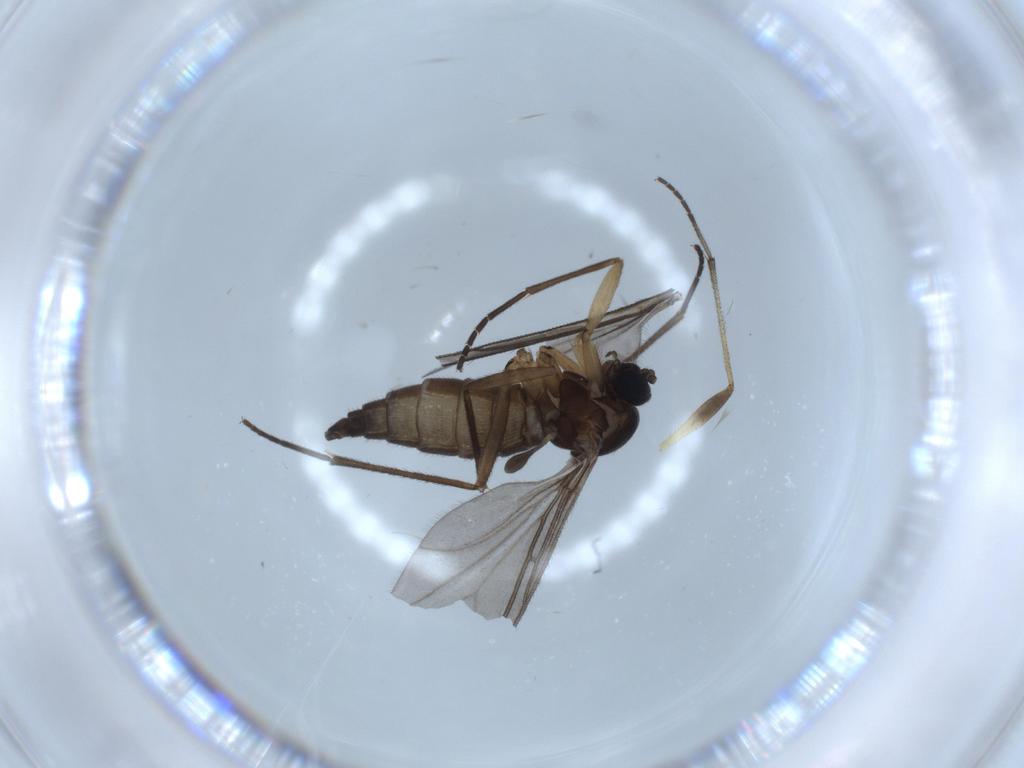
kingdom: Animalia
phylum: Arthropoda
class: Insecta
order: Diptera
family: Sciaridae
